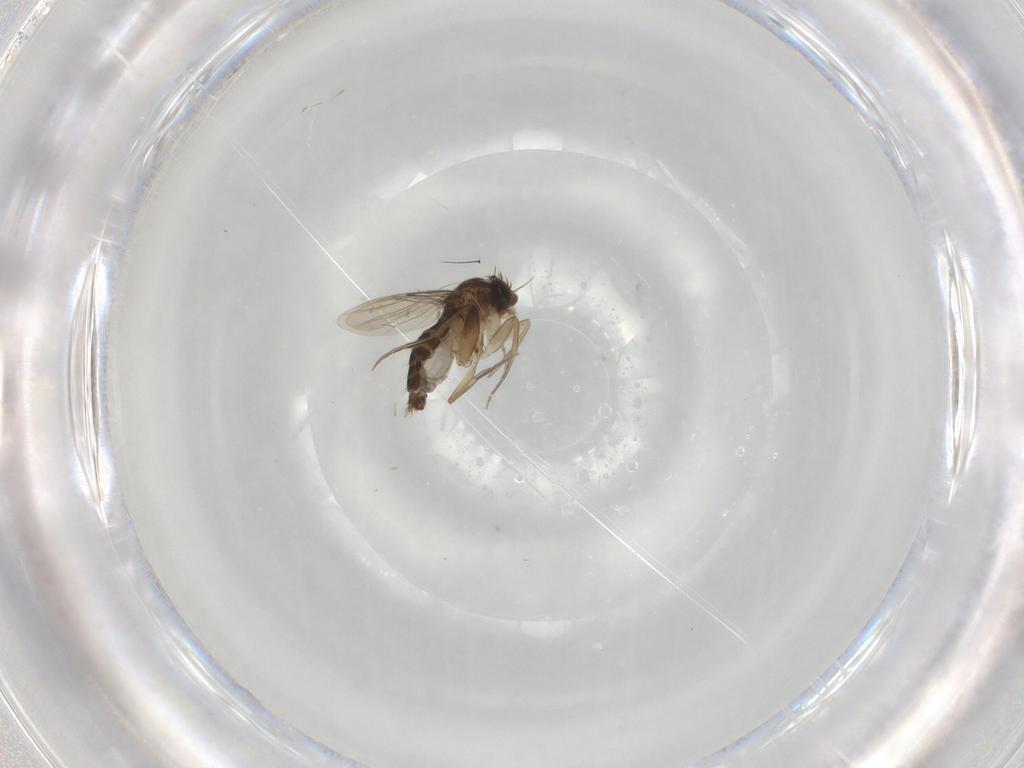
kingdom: Animalia
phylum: Arthropoda
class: Insecta
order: Diptera
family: Phoridae
